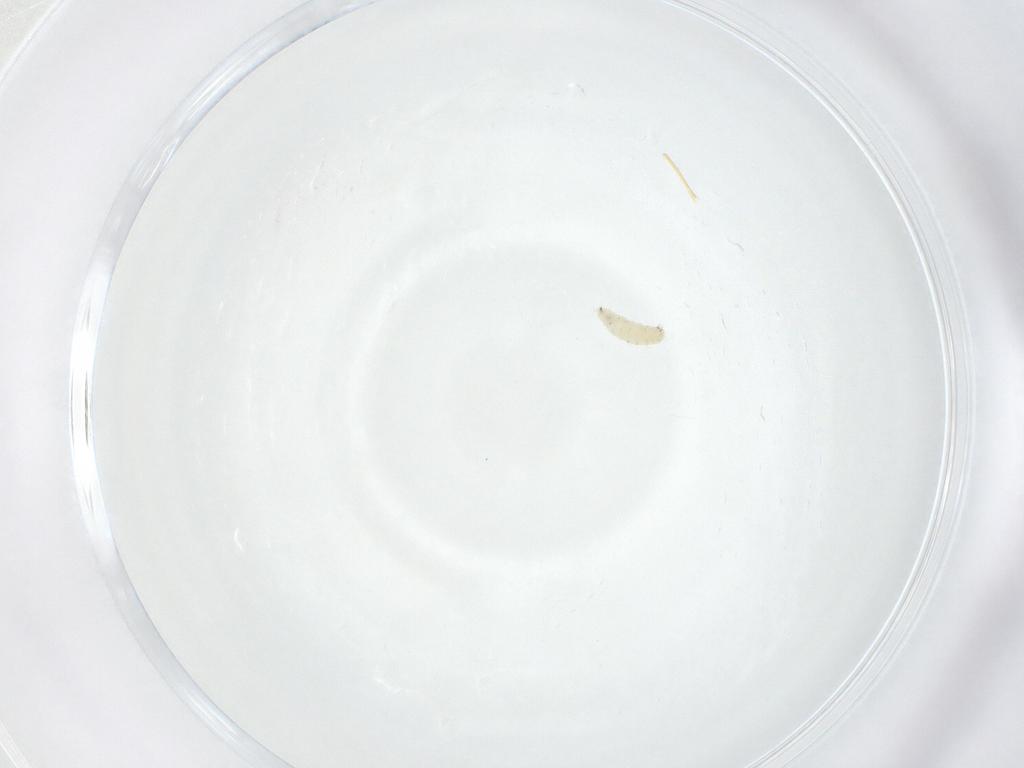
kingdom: Animalia
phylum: Arthropoda
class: Insecta
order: Diptera
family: Sarcophagidae
